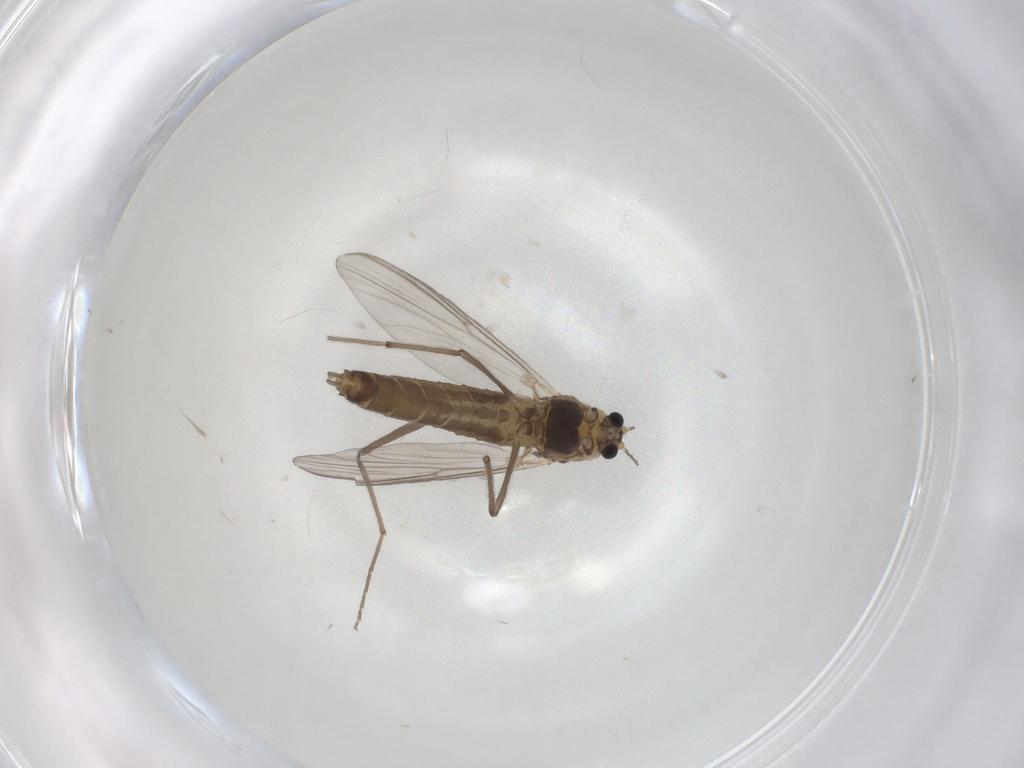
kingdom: Animalia
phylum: Arthropoda
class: Insecta
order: Diptera
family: Chironomidae
